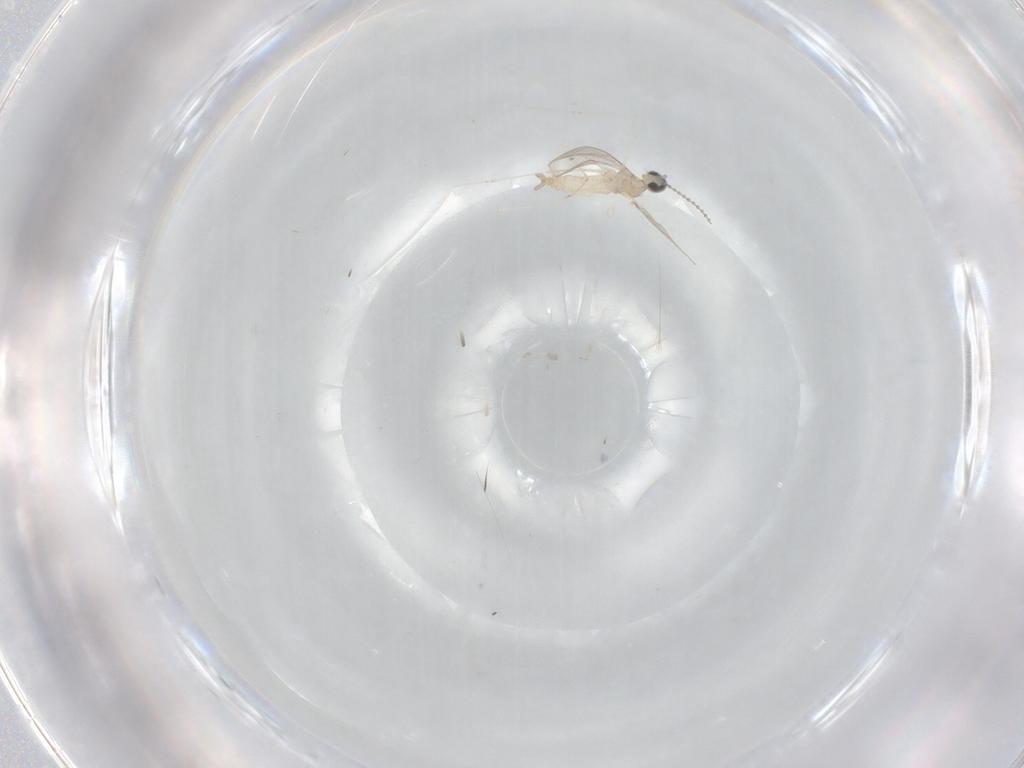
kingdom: Animalia
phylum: Arthropoda
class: Insecta
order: Diptera
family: Cecidomyiidae
